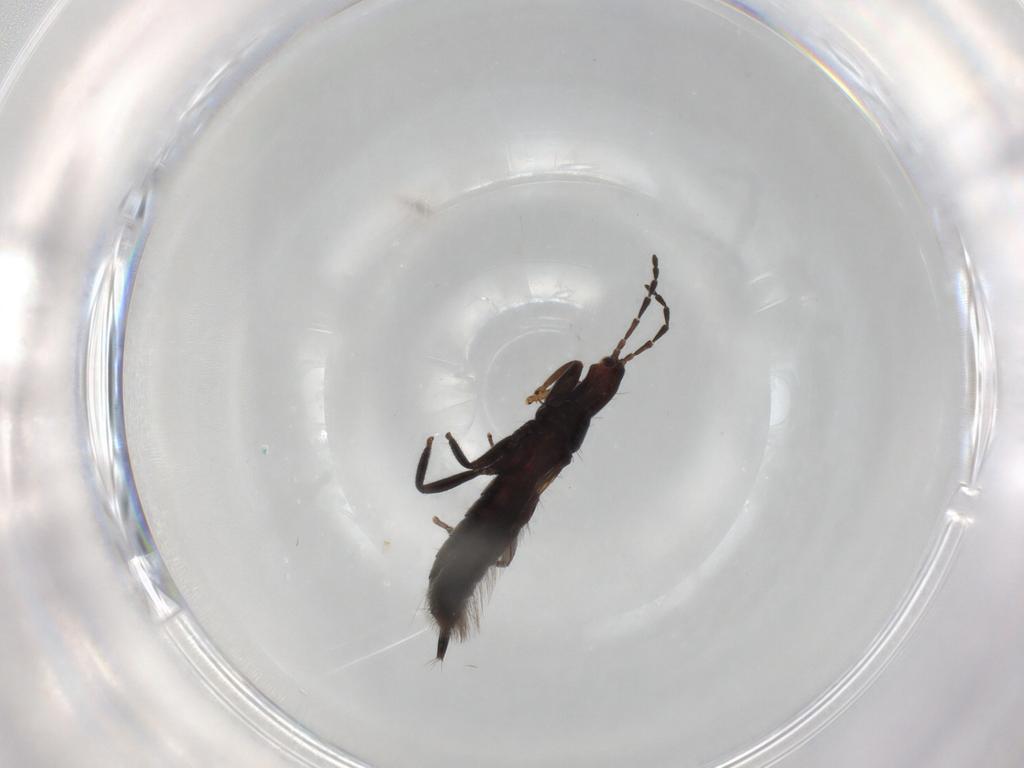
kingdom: Animalia
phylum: Arthropoda
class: Insecta
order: Thysanoptera
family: Phlaeothripidae
